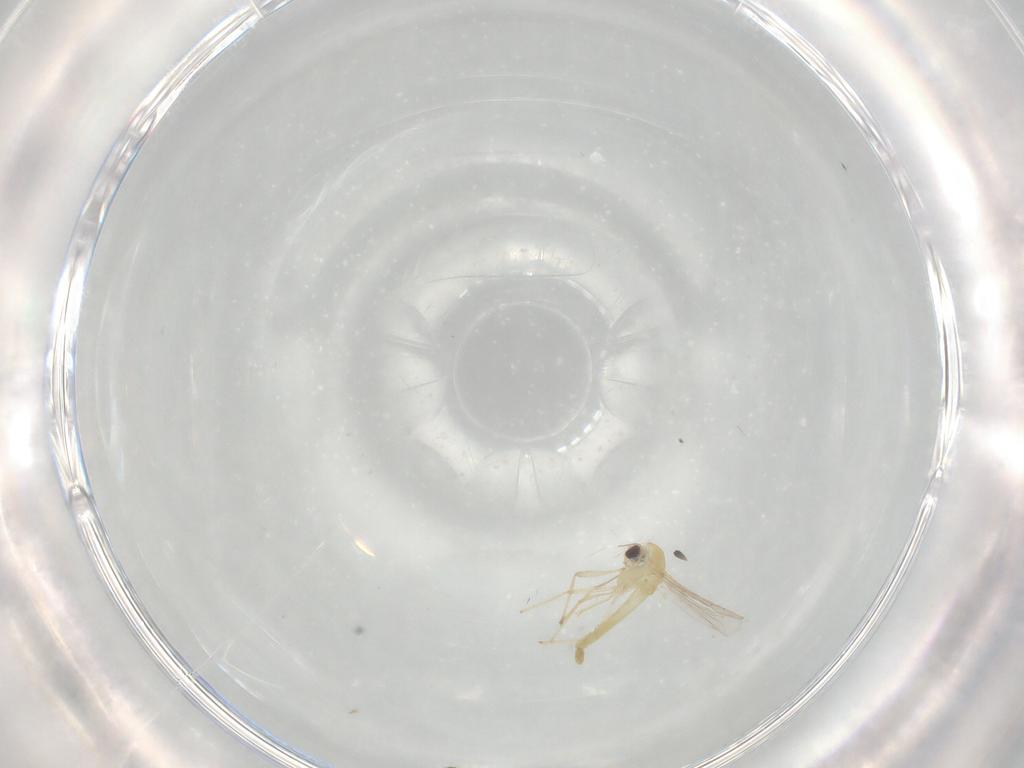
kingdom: Animalia
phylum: Arthropoda
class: Insecta
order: Diptera
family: Chironomidae
